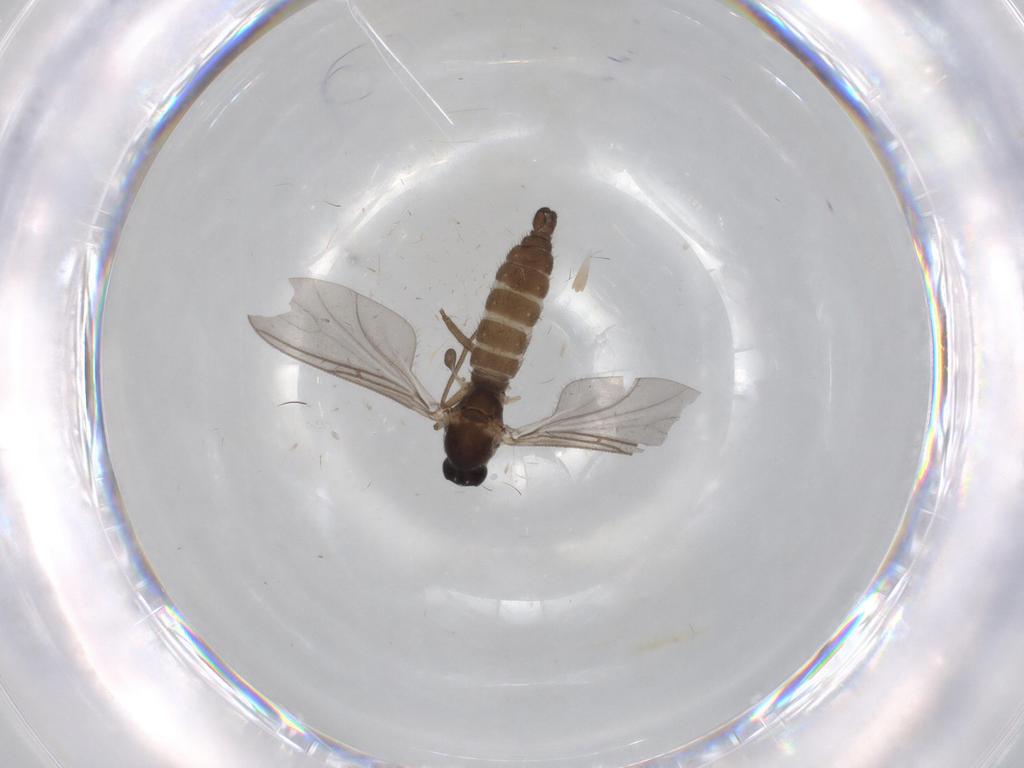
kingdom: Animalia
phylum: Arthropoda
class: Insecta
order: Diptera
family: Sciaridae
